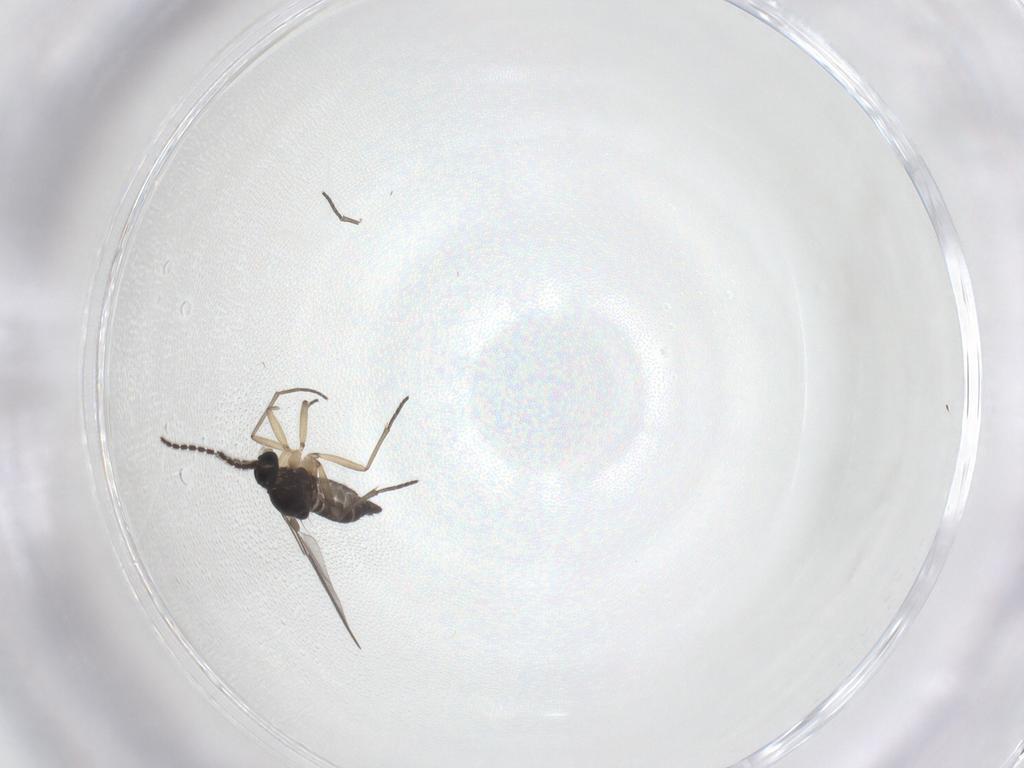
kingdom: Animalia
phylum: Arthropoda
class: Insecta
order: Diptera
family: Sciaridae
